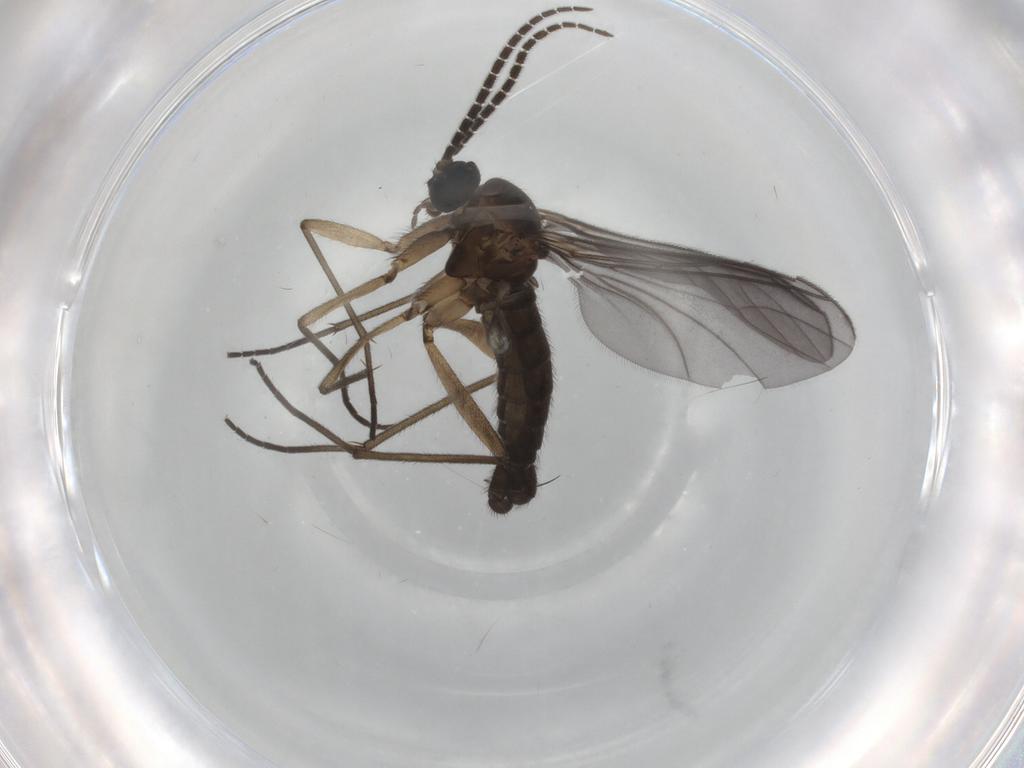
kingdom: Animalia
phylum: Arthropoda
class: Insecta
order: Diptera
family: Sciaridae
